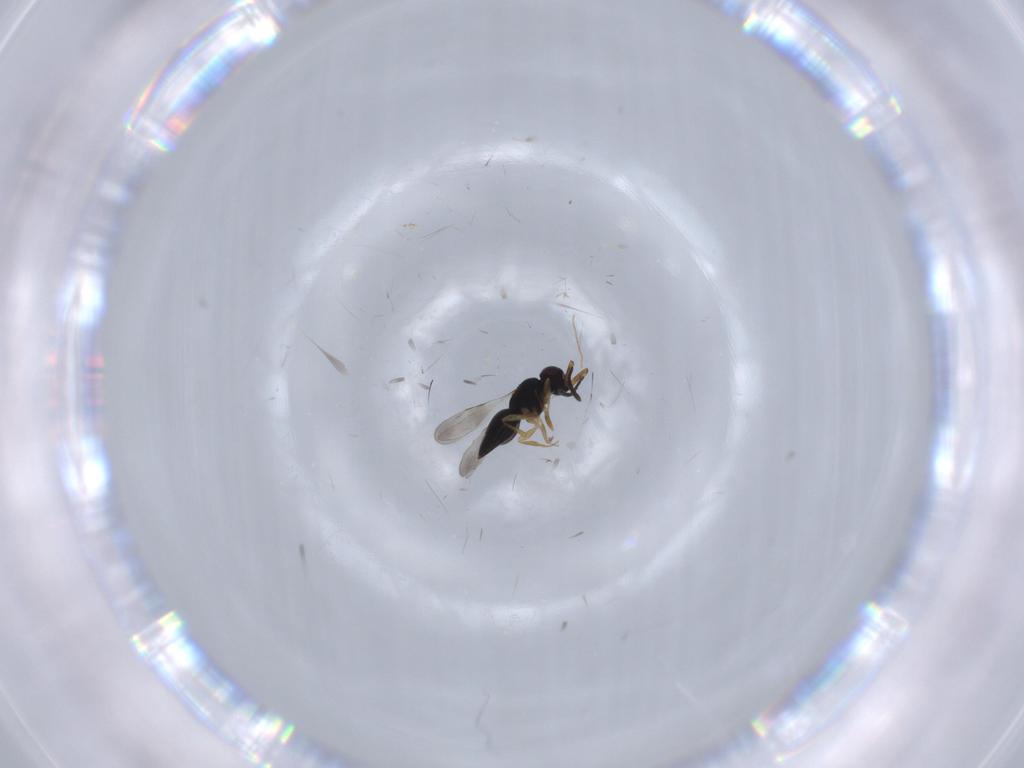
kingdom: Animalia
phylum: Arthropoda
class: Insecta
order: Hymenoptera
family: Ceraphronidae
